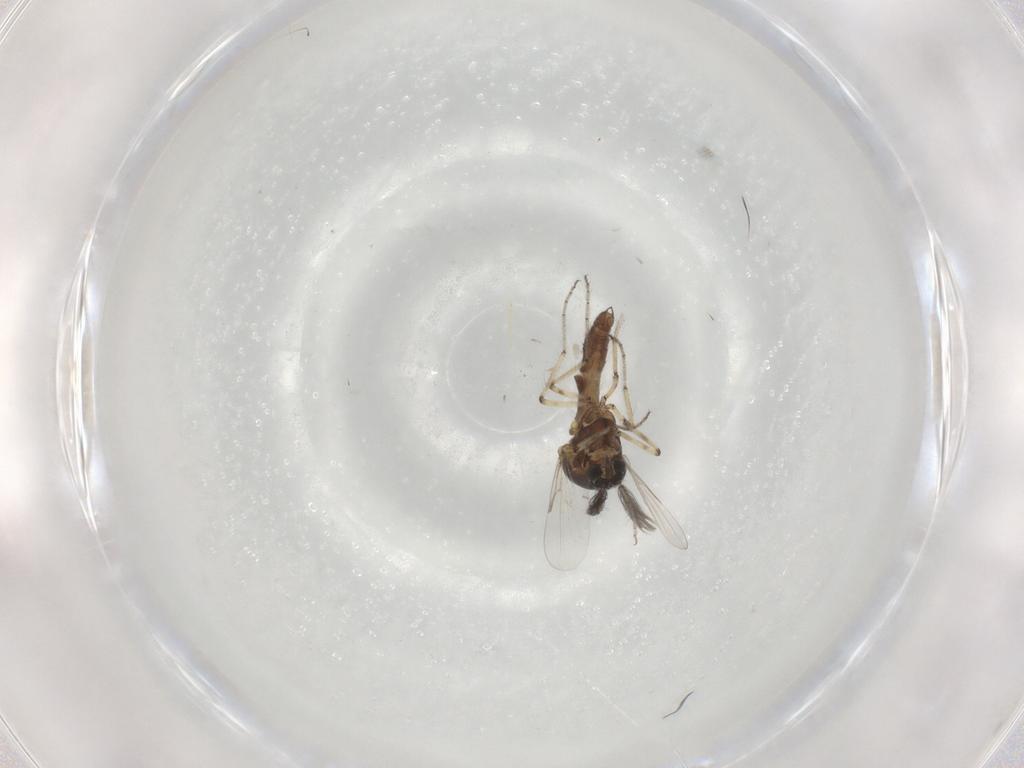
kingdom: Animalia
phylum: Arthropoda
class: Insecta
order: Diptera
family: Ceratopogonidae
